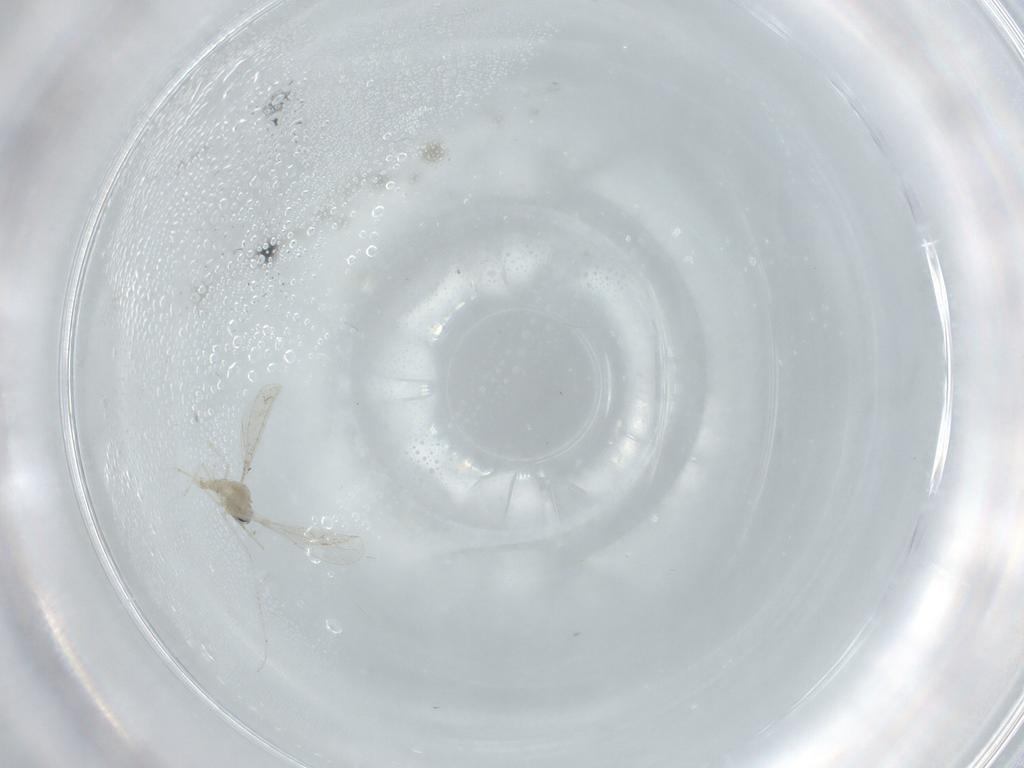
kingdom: Animalia
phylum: Arthropoda
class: Insecta
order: Diptera
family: Cecidomyiidae
